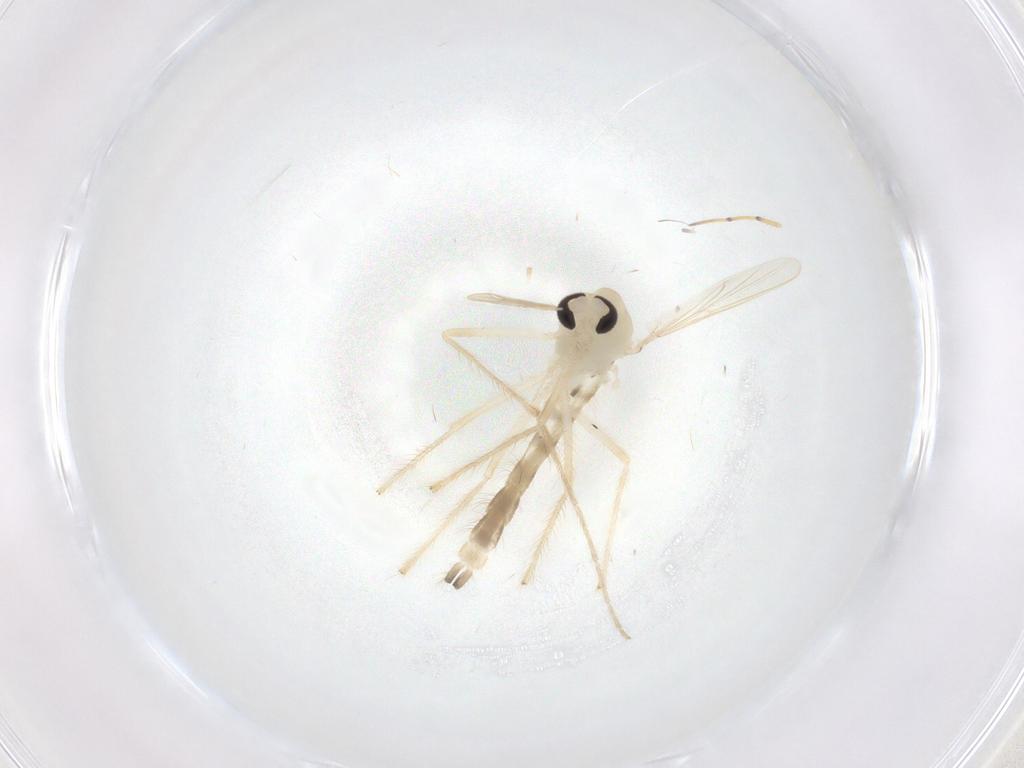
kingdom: Animalia
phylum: Arthropoda
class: Insecta
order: Diptera
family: Chironomidae
